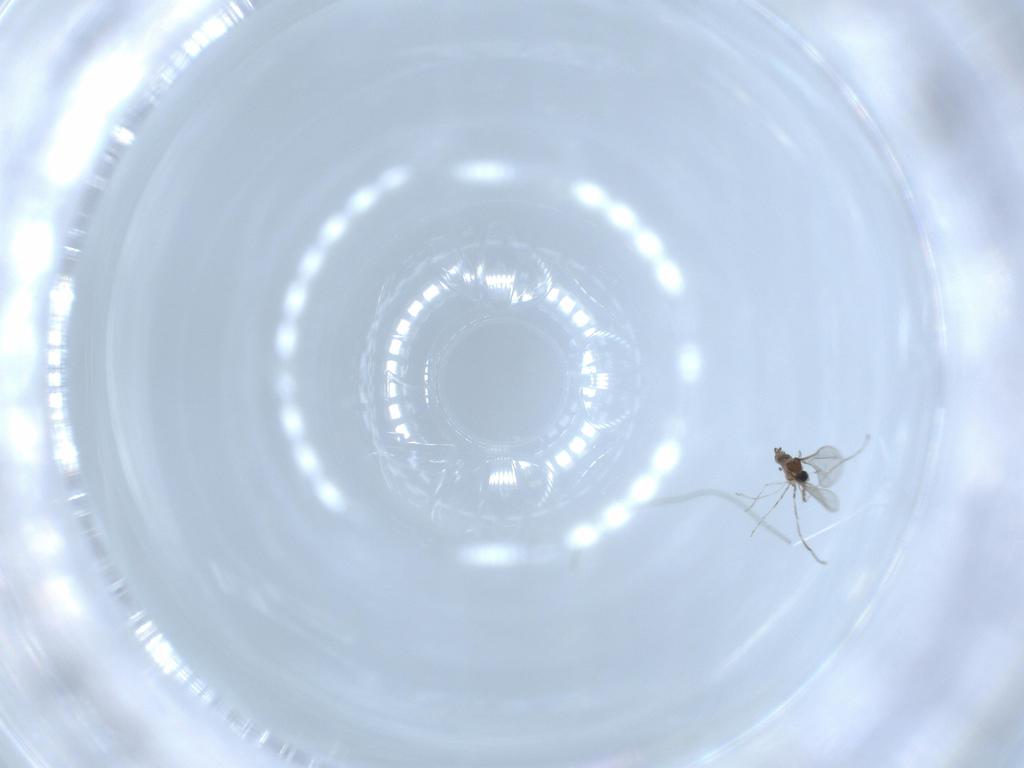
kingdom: Animalia
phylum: Arthropoda
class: Insecta
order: Diptera
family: Cecidomyiidae
